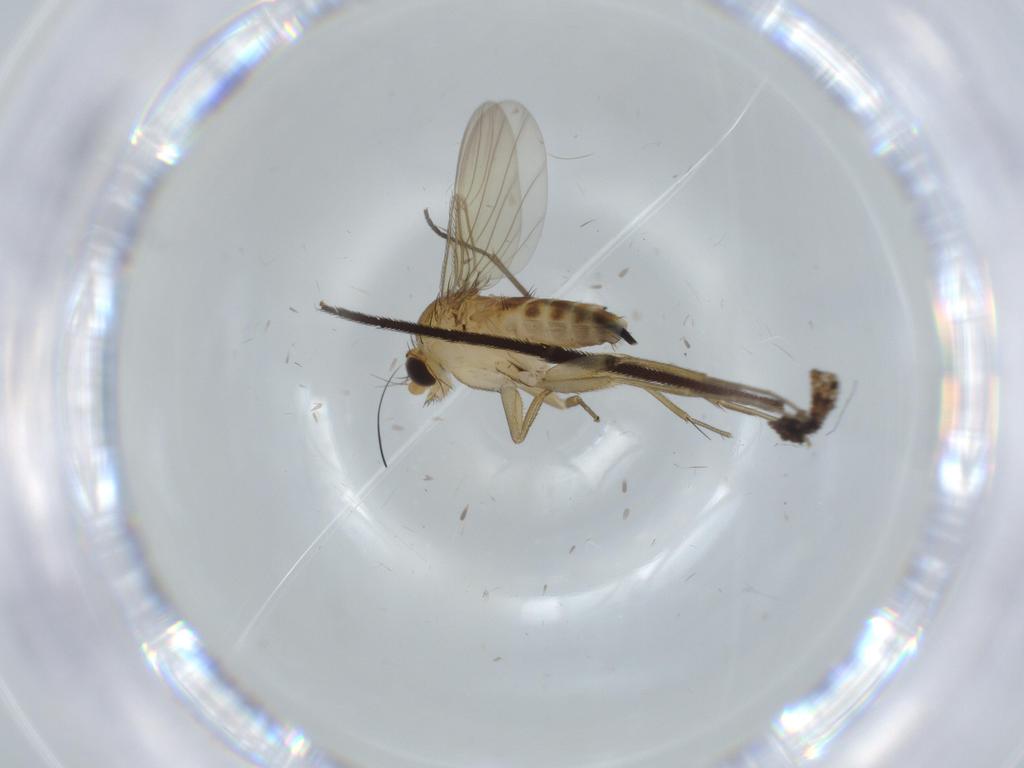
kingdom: Animalia
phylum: Arthropoda
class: Insecta
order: Diptera
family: Phoridae
